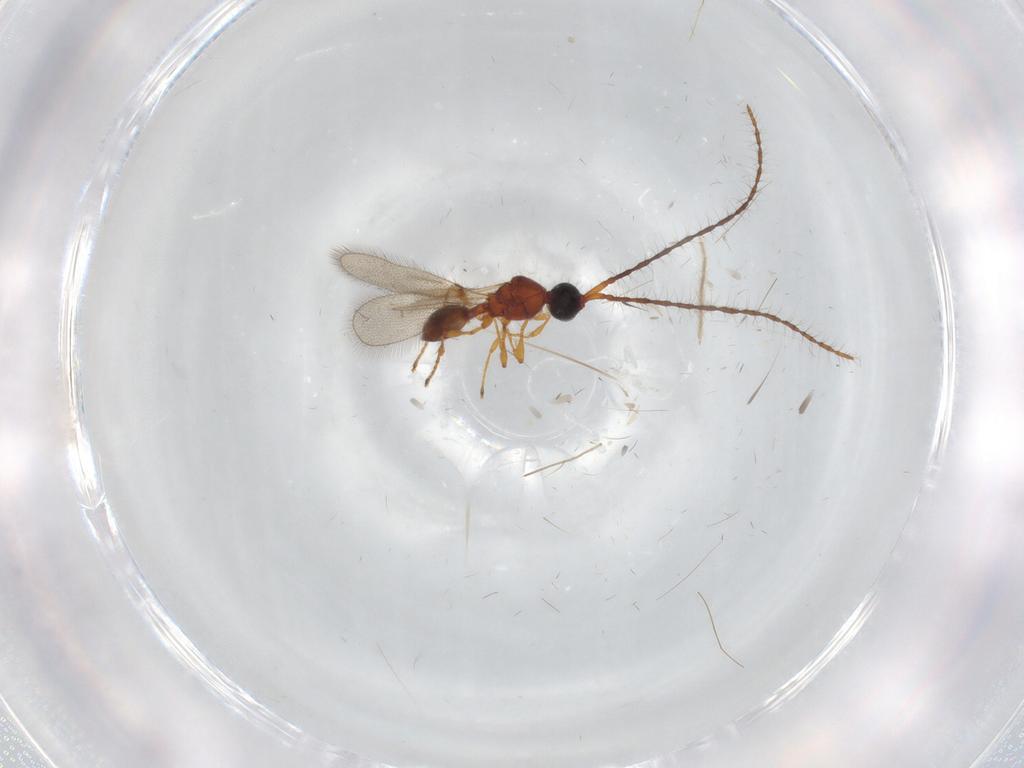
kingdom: Animalia
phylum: Arthropoda
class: Insecta
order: Hymenoptera
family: Diapriidae
